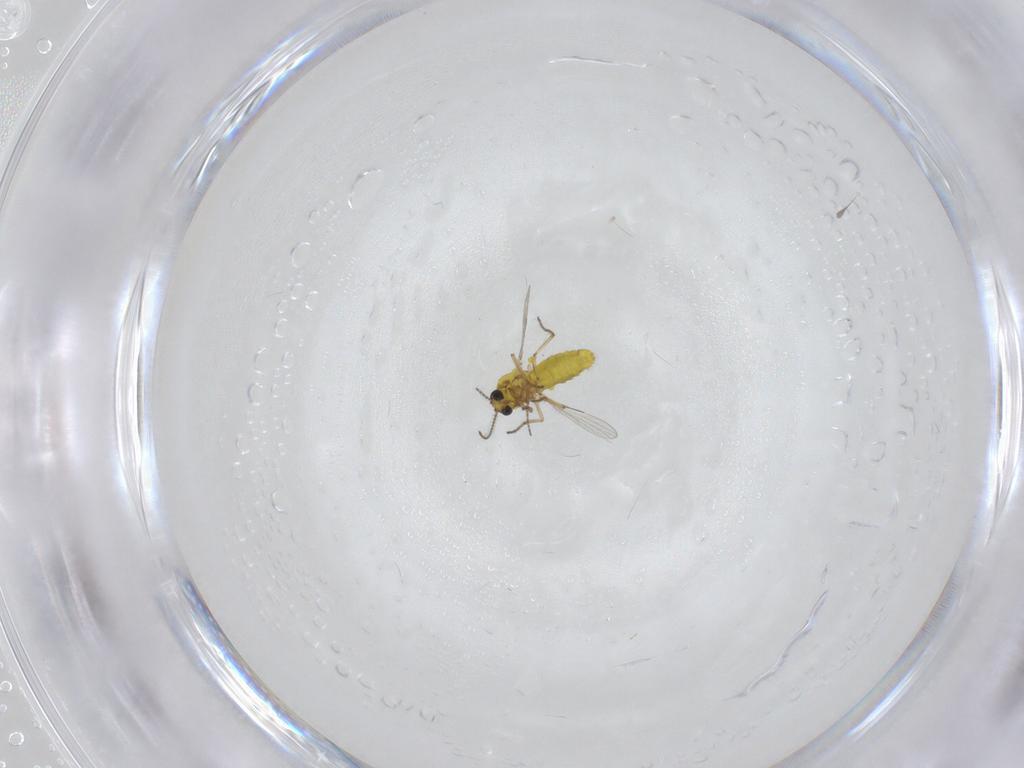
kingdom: Animalia
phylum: Arthropoda
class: Insecta
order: Diptera
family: Ceratopogonidae
